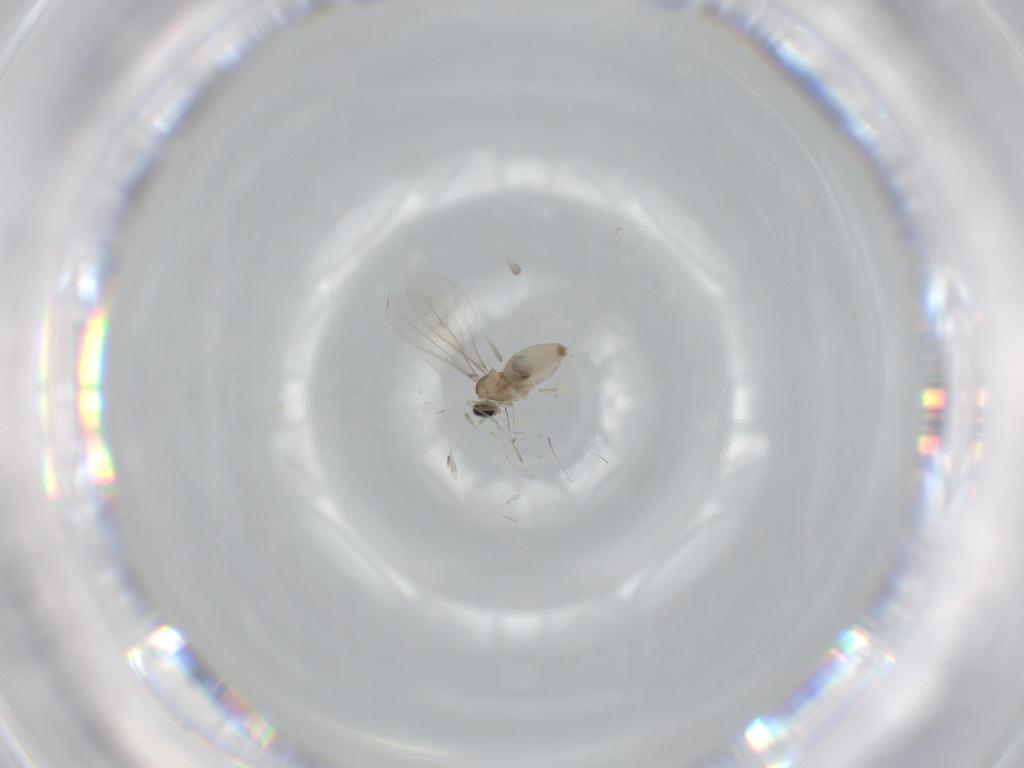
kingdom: Animalia
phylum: Arthropoda
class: Insecta
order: Diptera
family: Cecidomyiidae
